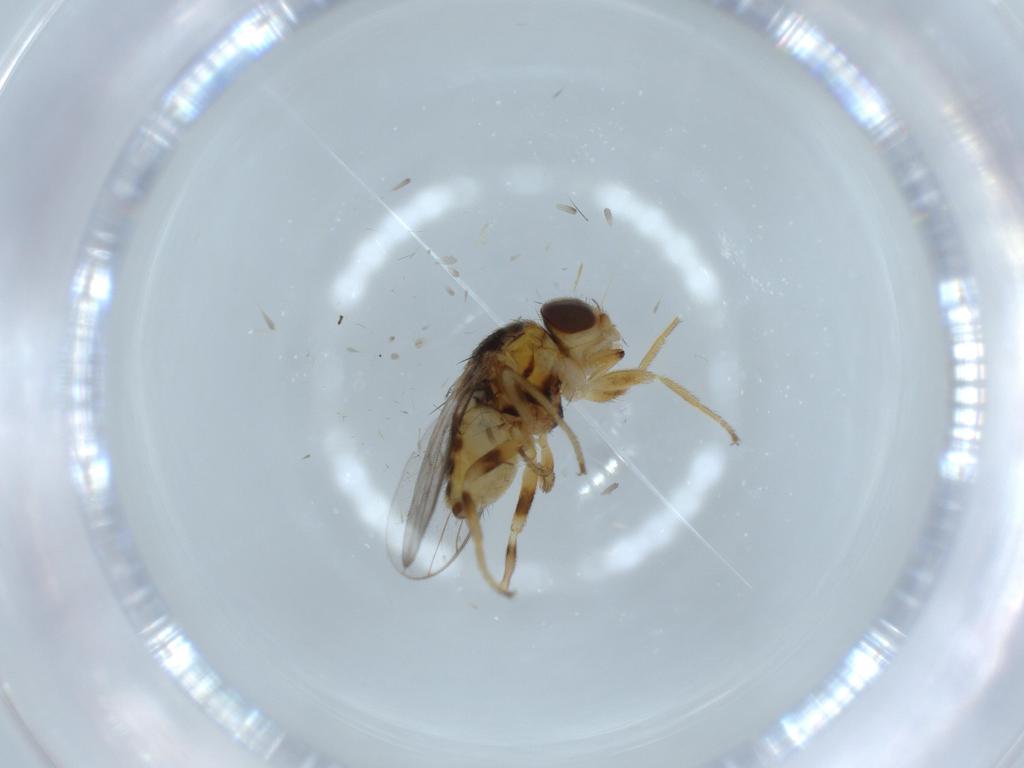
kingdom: Animalia
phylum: Arthropoda
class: Insecta
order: Diptera
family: Chloropidae
